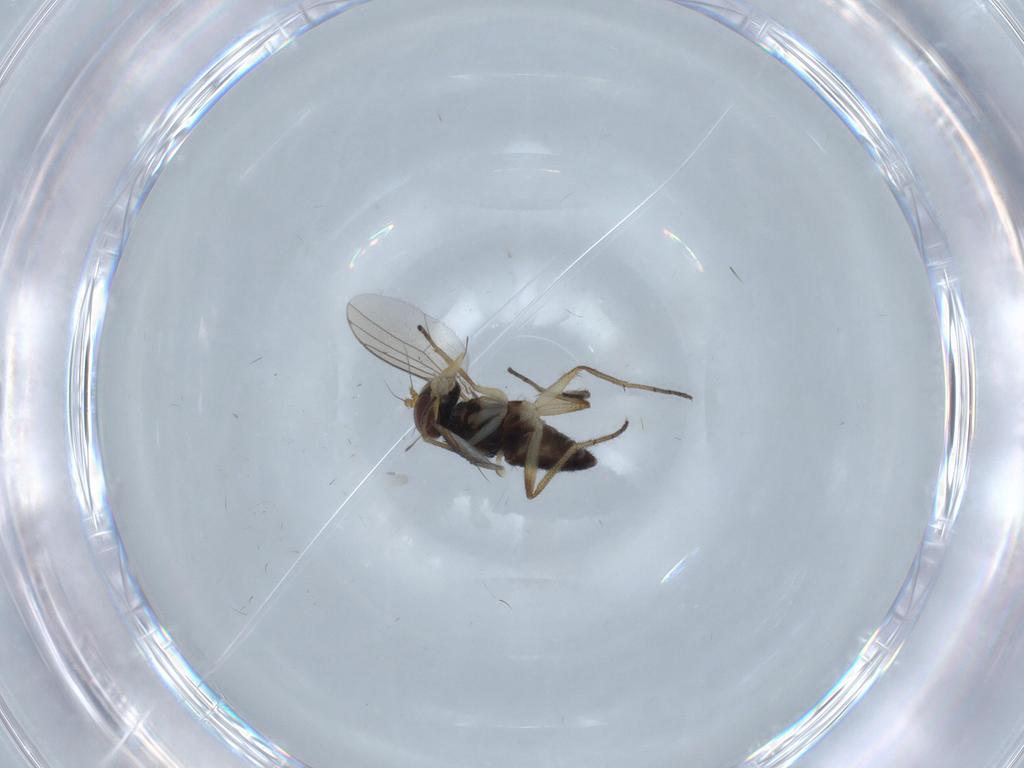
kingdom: Animalia
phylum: Arthropoda
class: Insecta
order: Diptera
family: Dolichopodidae
